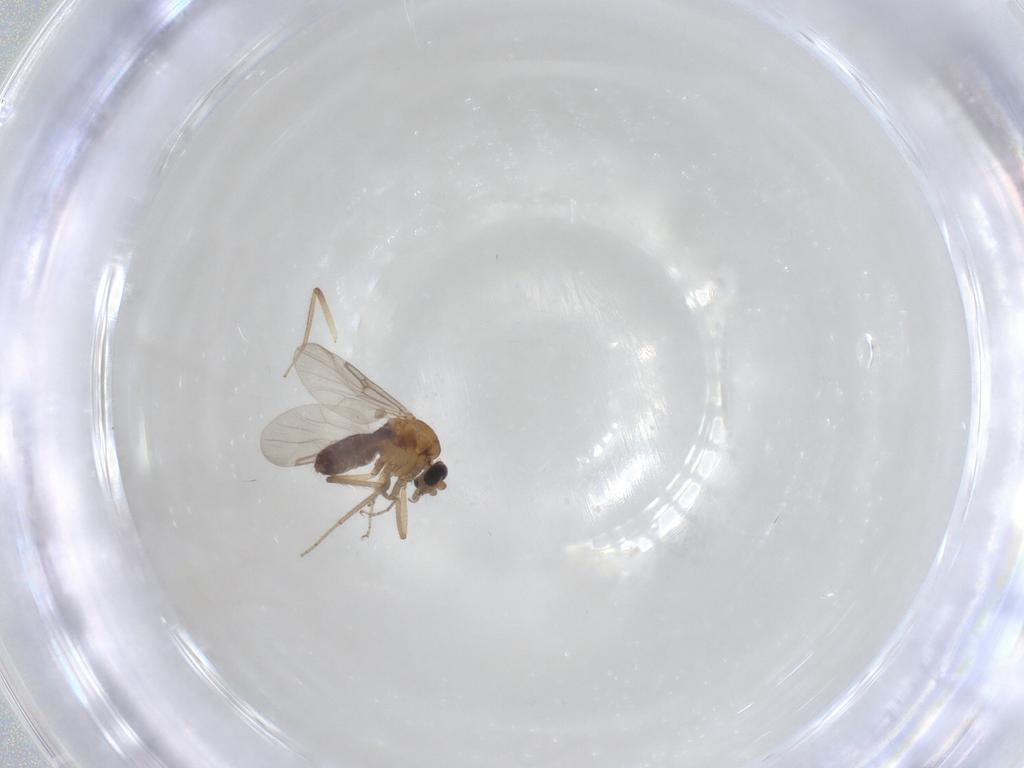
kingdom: Animalia
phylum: Arthropoda
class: Insecta
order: Diptera
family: Ceratopogonidae
